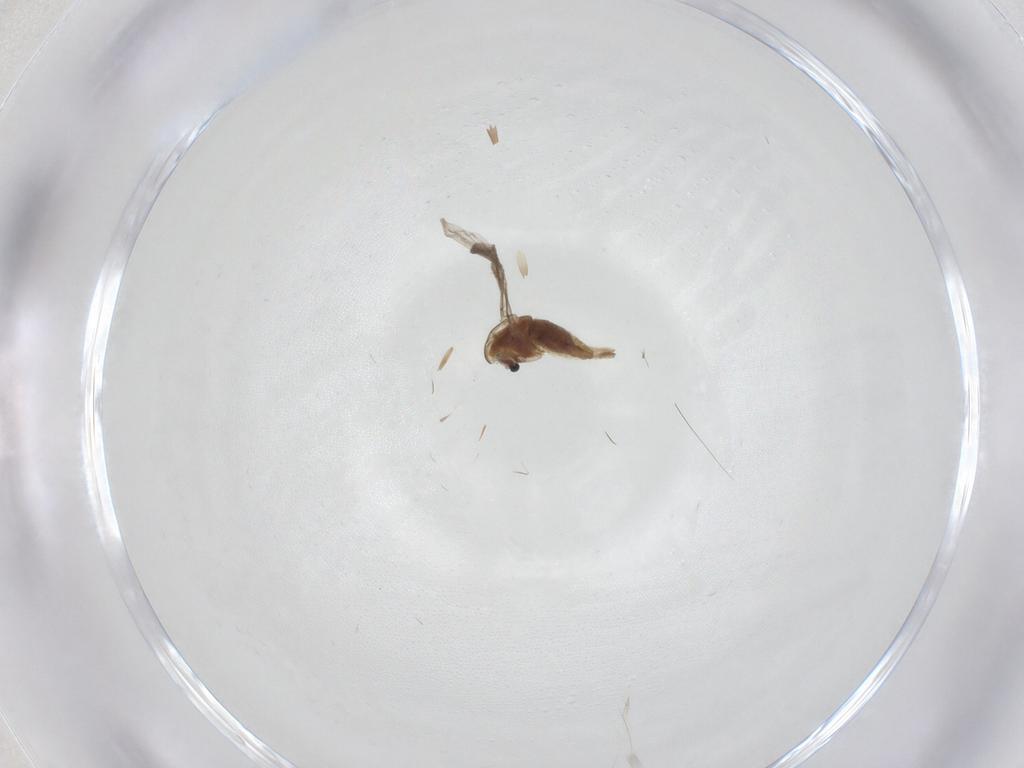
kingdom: Animalia
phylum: Arthropoda
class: Insecta
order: Diptera
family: Chironomidae
